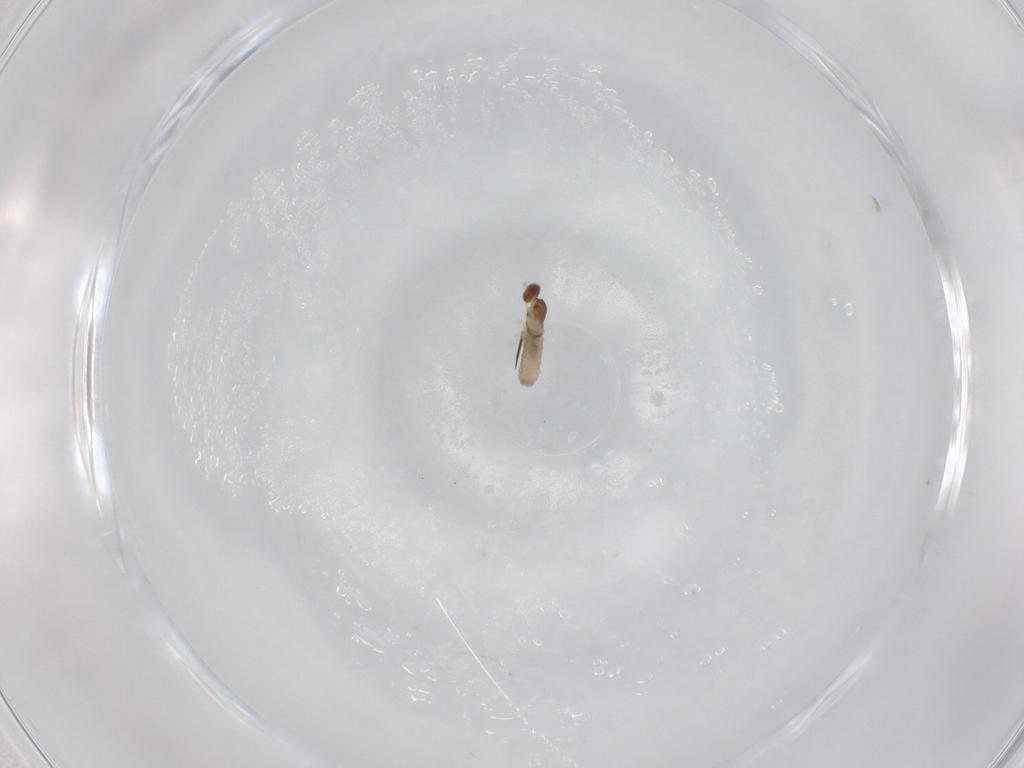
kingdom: Animalia
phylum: Arthropoda
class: Insecta
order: Diptera
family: Cecidomyiidae
